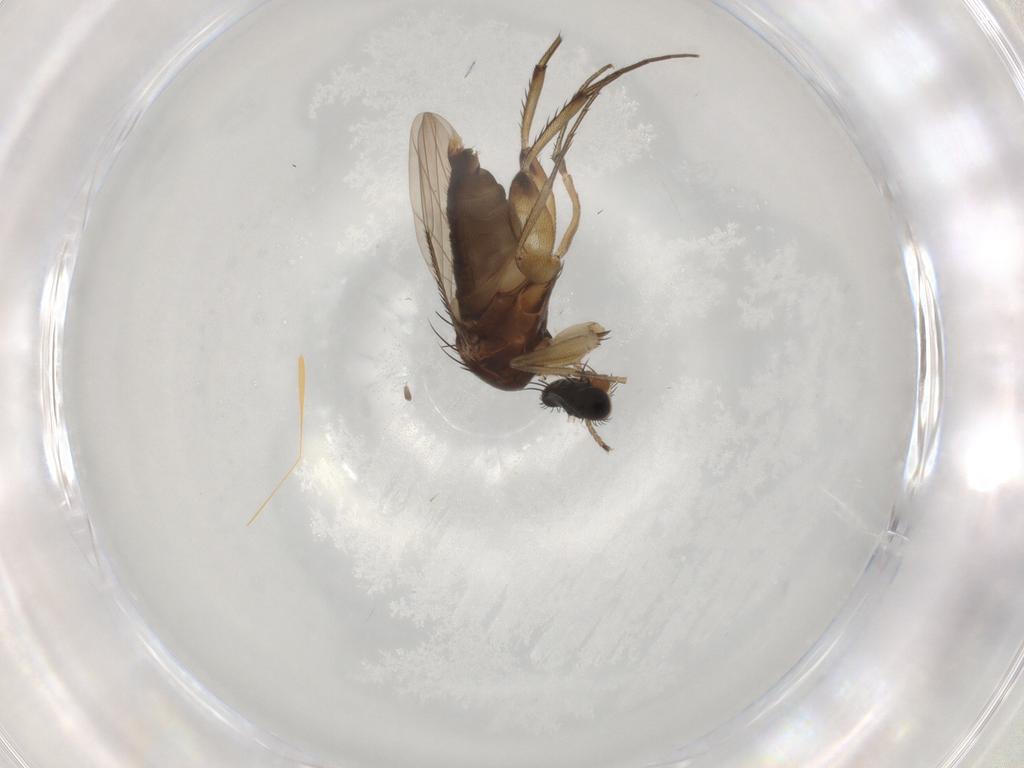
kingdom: Animalia
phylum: Arthropoda
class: Insecta
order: Diptera
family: Phoridae
